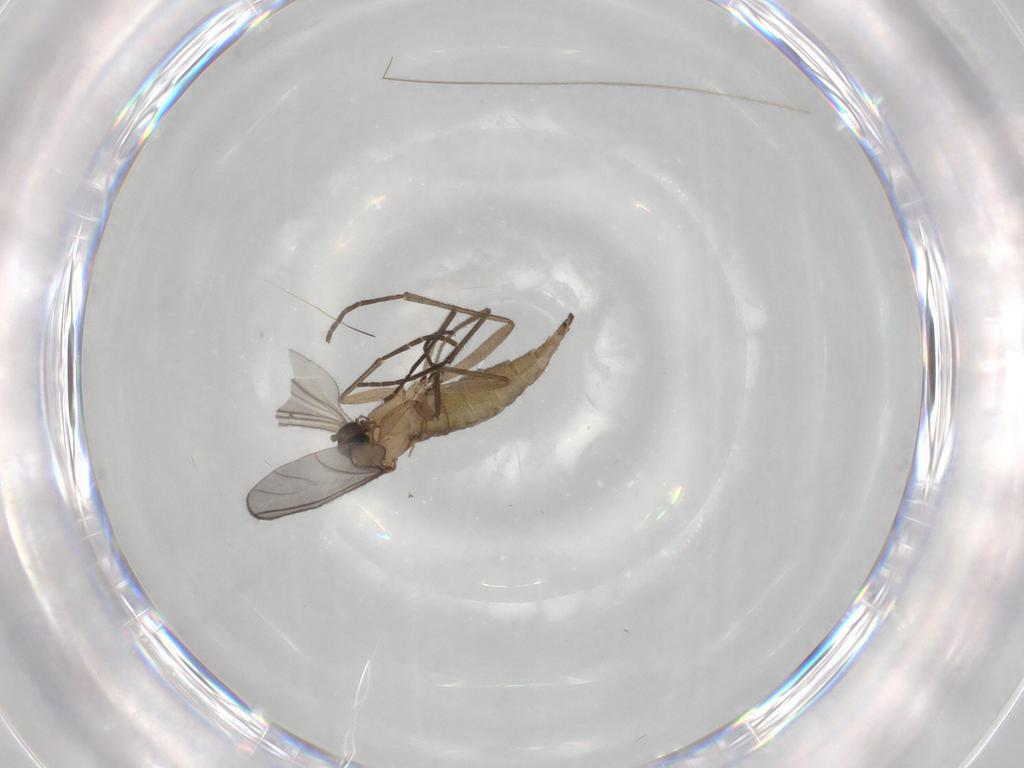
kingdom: Animalia
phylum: Arthropoda
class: Insecta
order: Diptera
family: Sciaridae
